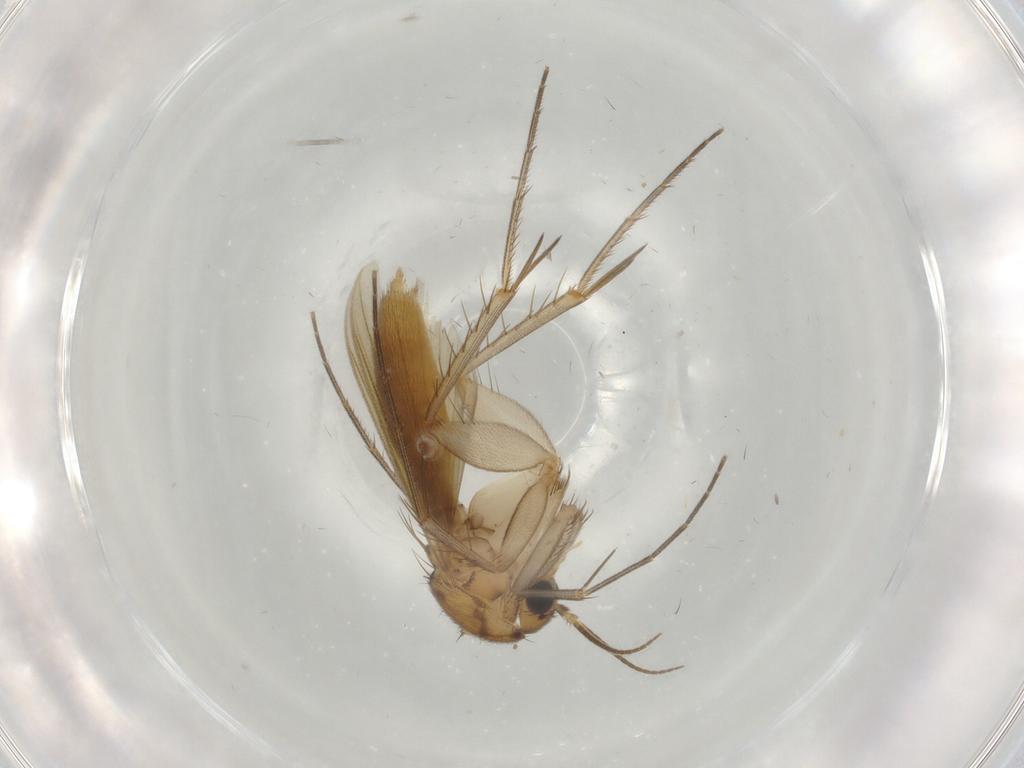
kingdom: Animalia
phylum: Arthropoda
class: Insecta
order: Diptera
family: Mycetophilidae
